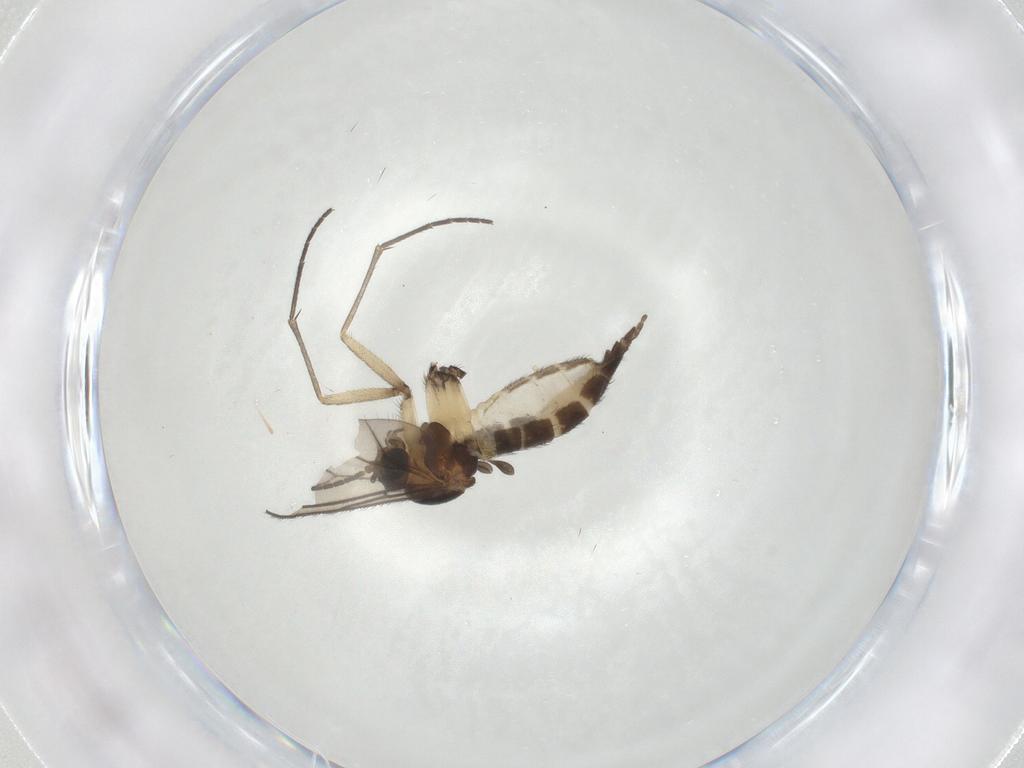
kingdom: Animalia
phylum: Arthropoda
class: Insecta
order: Diptera
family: Sciaridae
